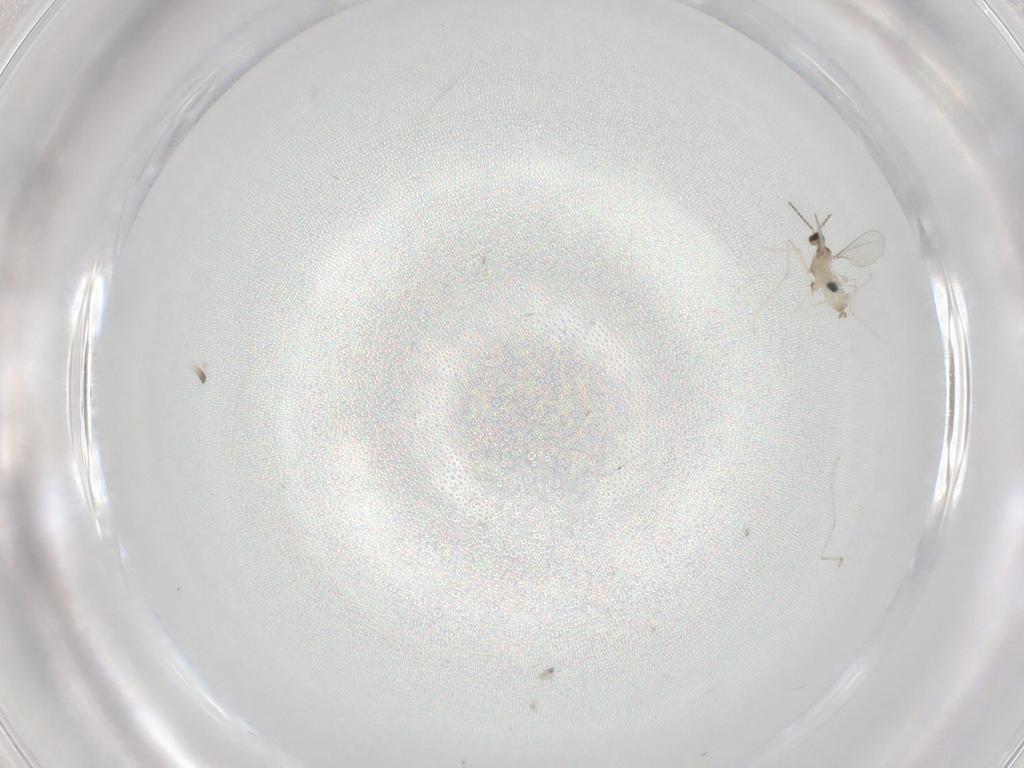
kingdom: Animalia
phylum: Arthropoda
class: Insecta
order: Diptera
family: Cecidomyiidae
